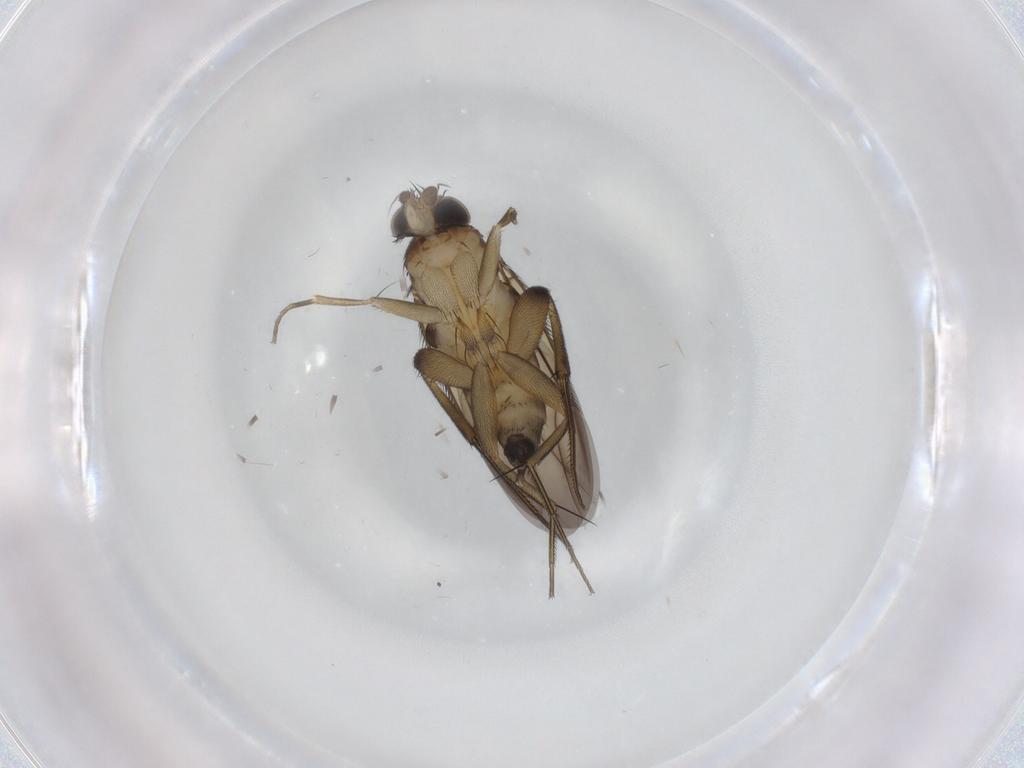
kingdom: Animalia
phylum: Arthropoda
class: Insecta
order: Diptera
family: Ceratopogonidae
